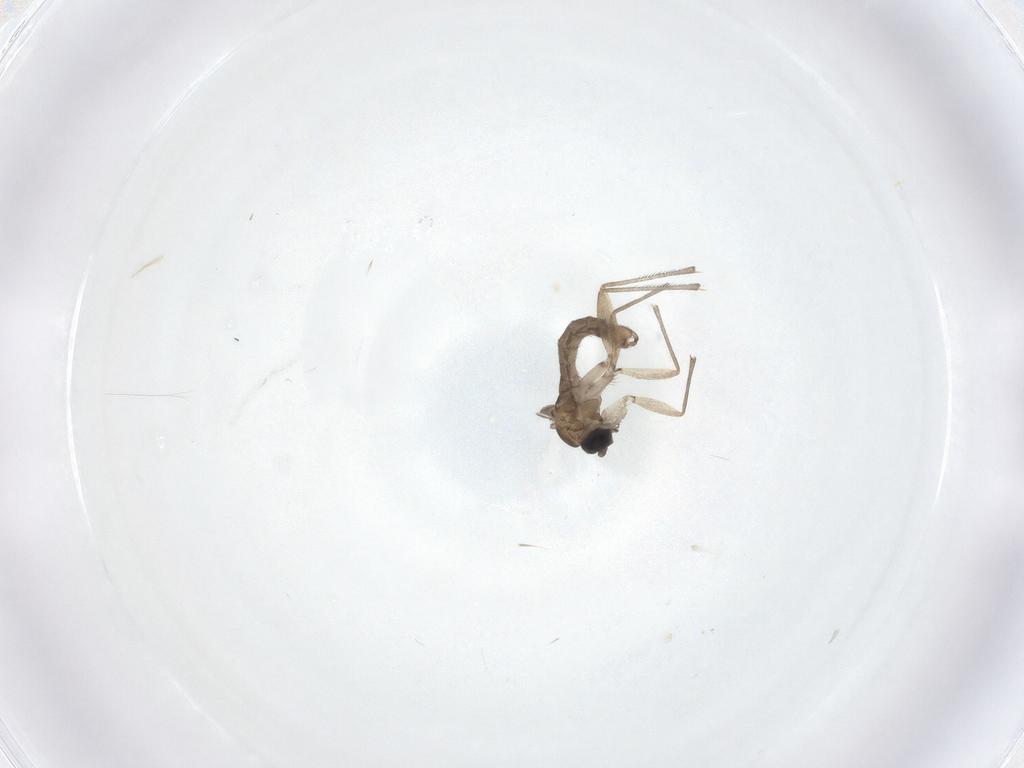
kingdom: Animalia
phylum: Arthropoda
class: Insecta
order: Diptera
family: Sciaridae
